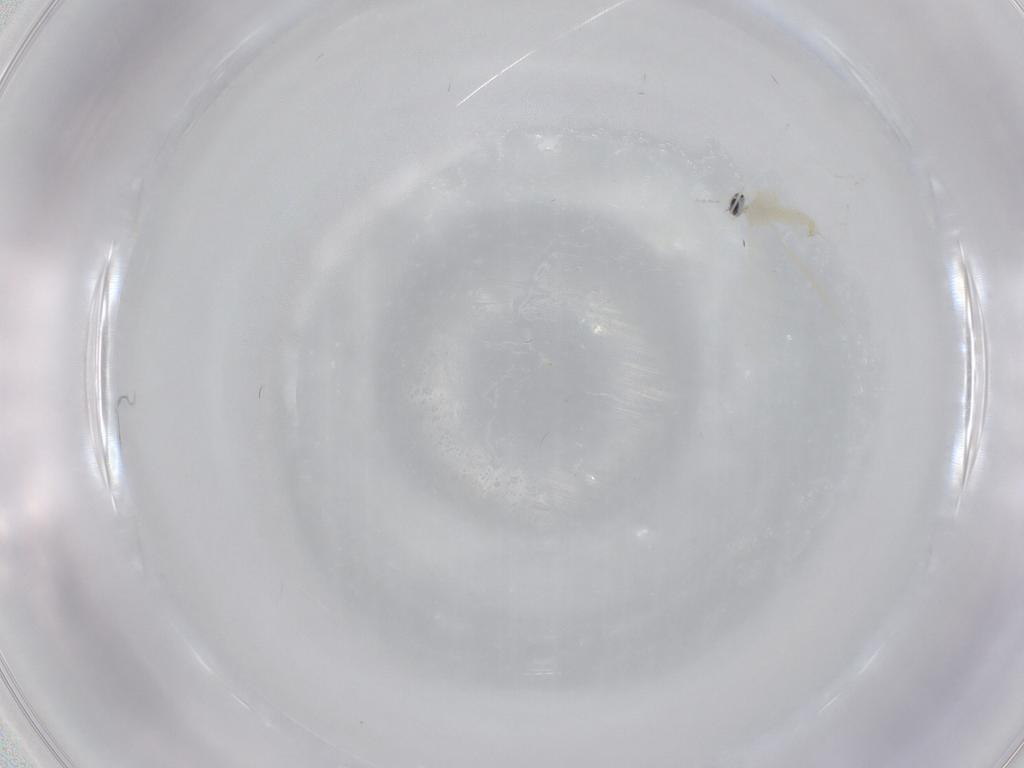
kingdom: Animalia
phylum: Arthropoda
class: Insecta
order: Diptera
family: Cecidomyiidae
